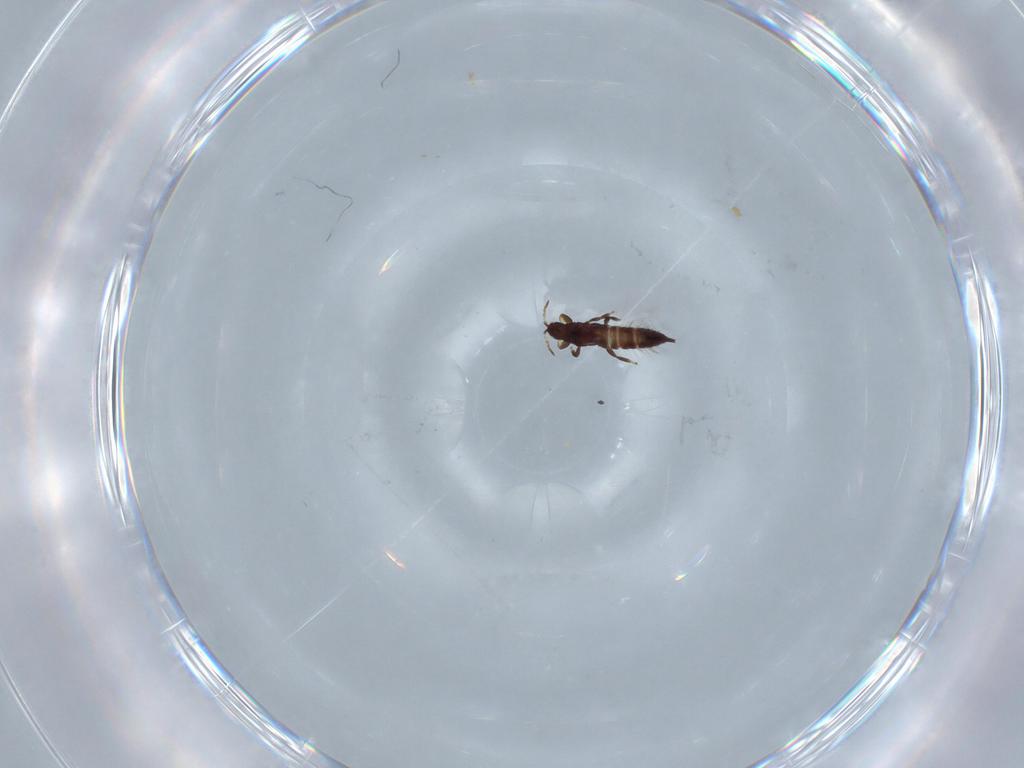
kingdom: Animalia
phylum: Arthropoda
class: Insecta
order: Thysanoptera
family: Phlaeothripidae
